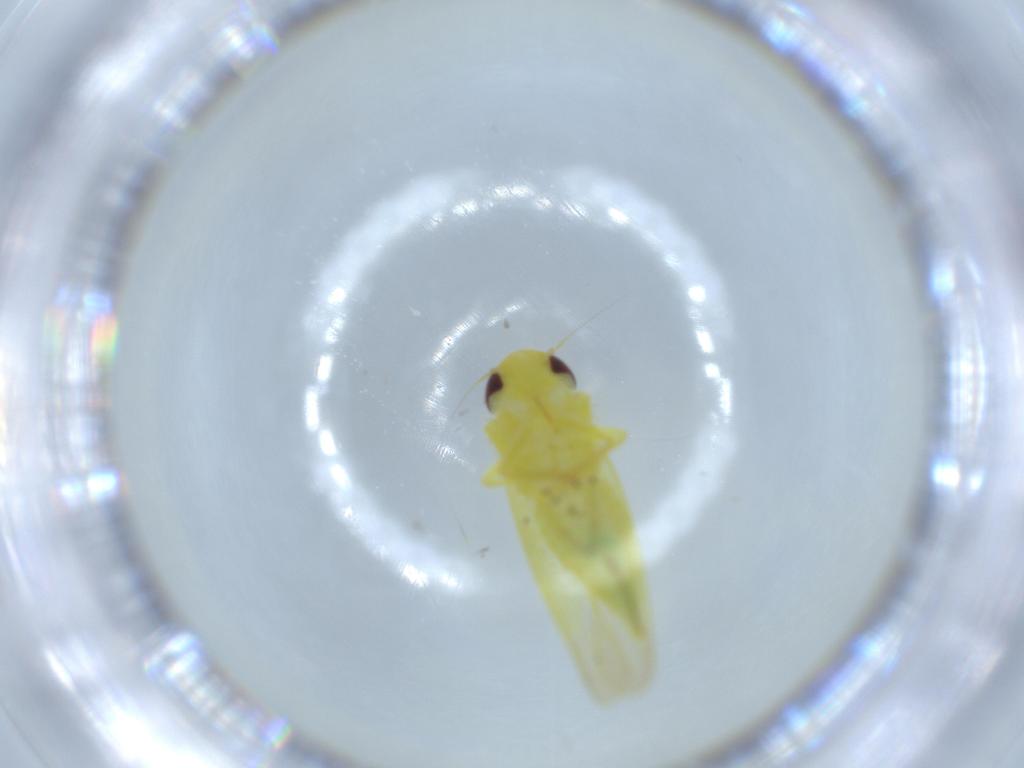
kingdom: Animalia
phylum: Arthropoda
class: Insecta
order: Hemiptera
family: Cicadellidae
